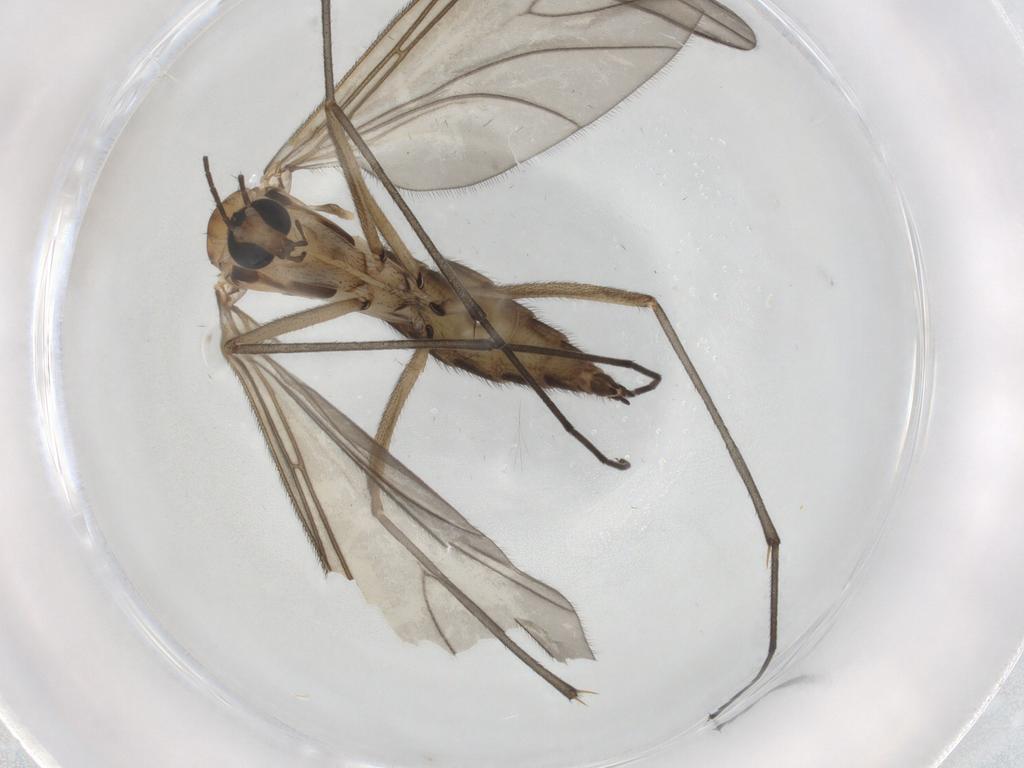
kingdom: Animalia
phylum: Arthropoda
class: Insecta
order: Diptera
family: Sciaridae
